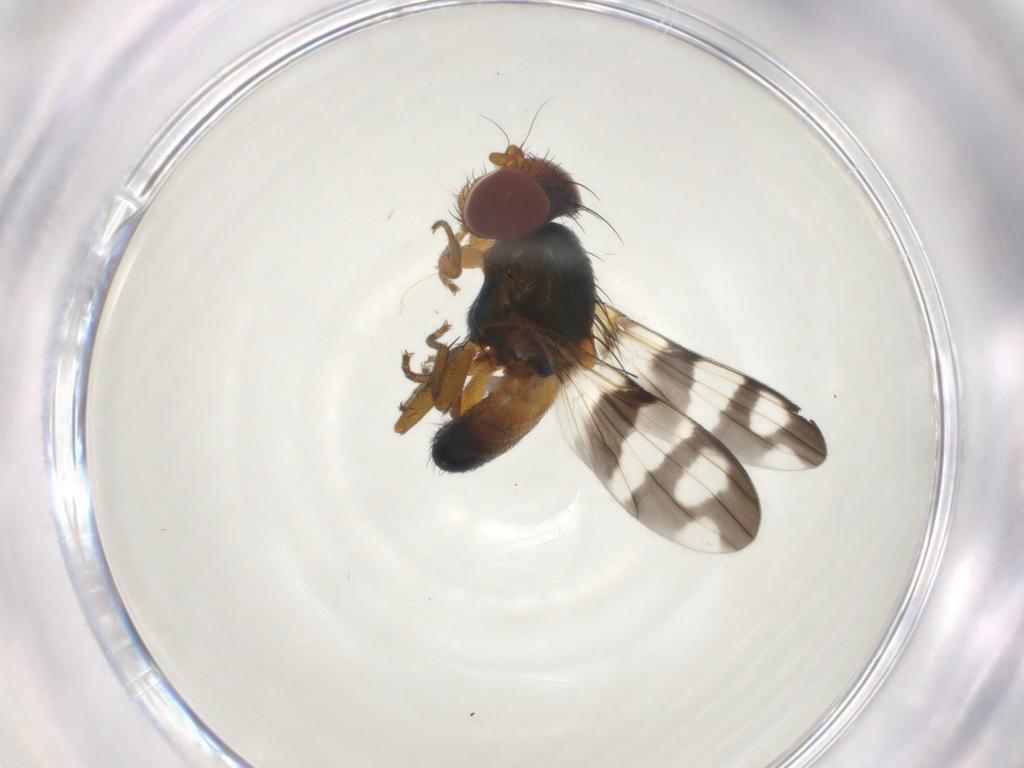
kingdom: Animalia
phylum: Arthropoda
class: Insecta
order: Diptera
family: Ulidiidae
